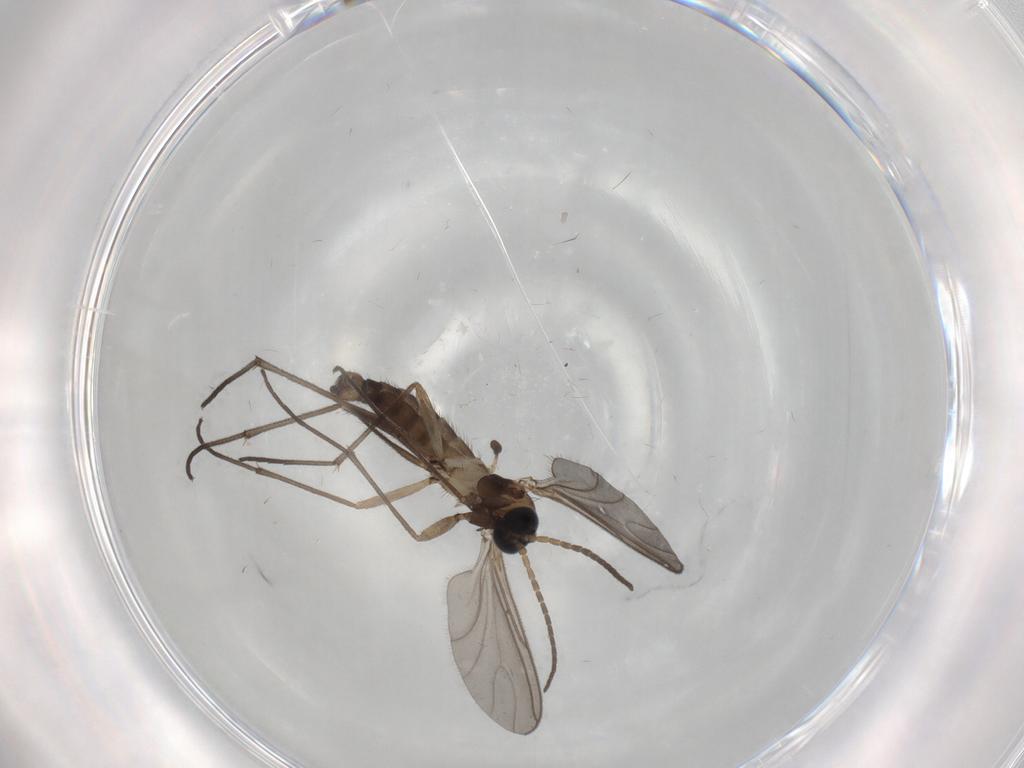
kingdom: Animalia
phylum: Arthropoda
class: Insecta
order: Diptera
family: Sciaridae
